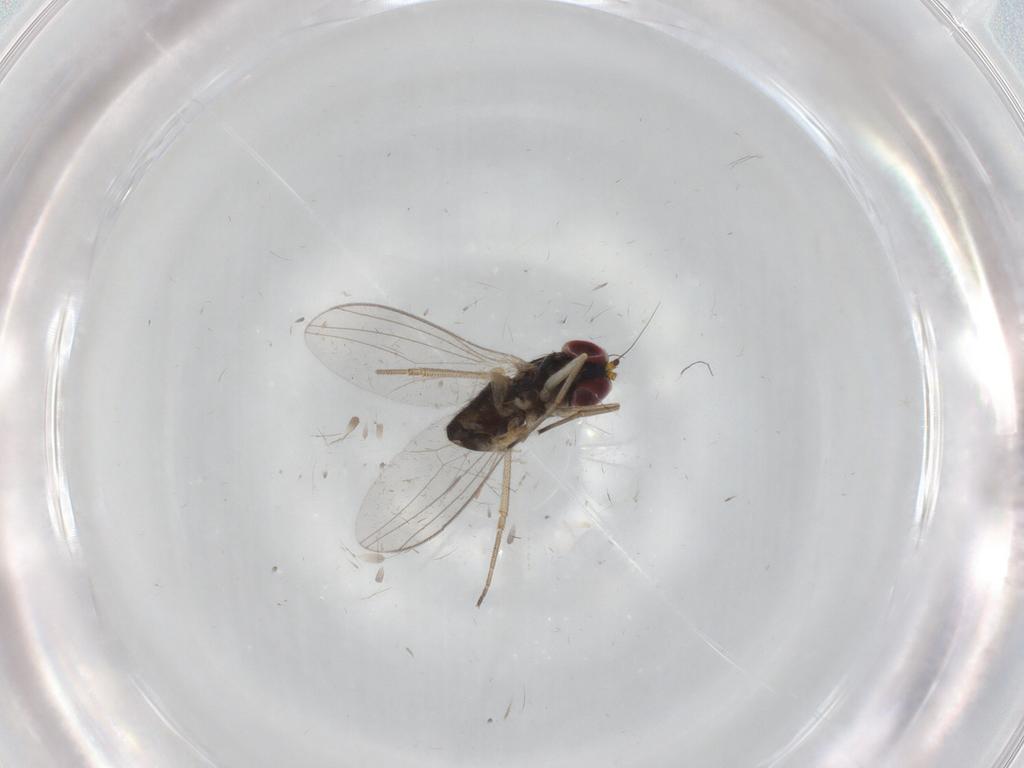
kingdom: Animalia
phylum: Arthropoda
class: Insecta
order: Diptera
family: Dolichopodidae
